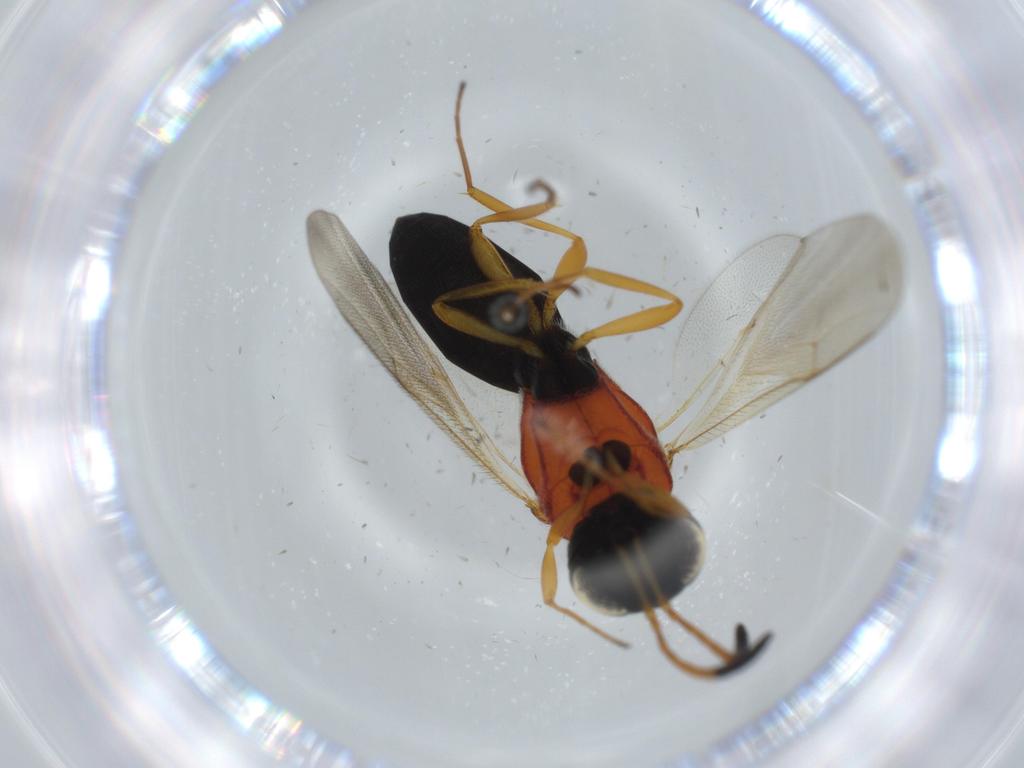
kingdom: Animalia
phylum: Arthropoda
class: Insecta
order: Hymenoptera
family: Scelionidae
